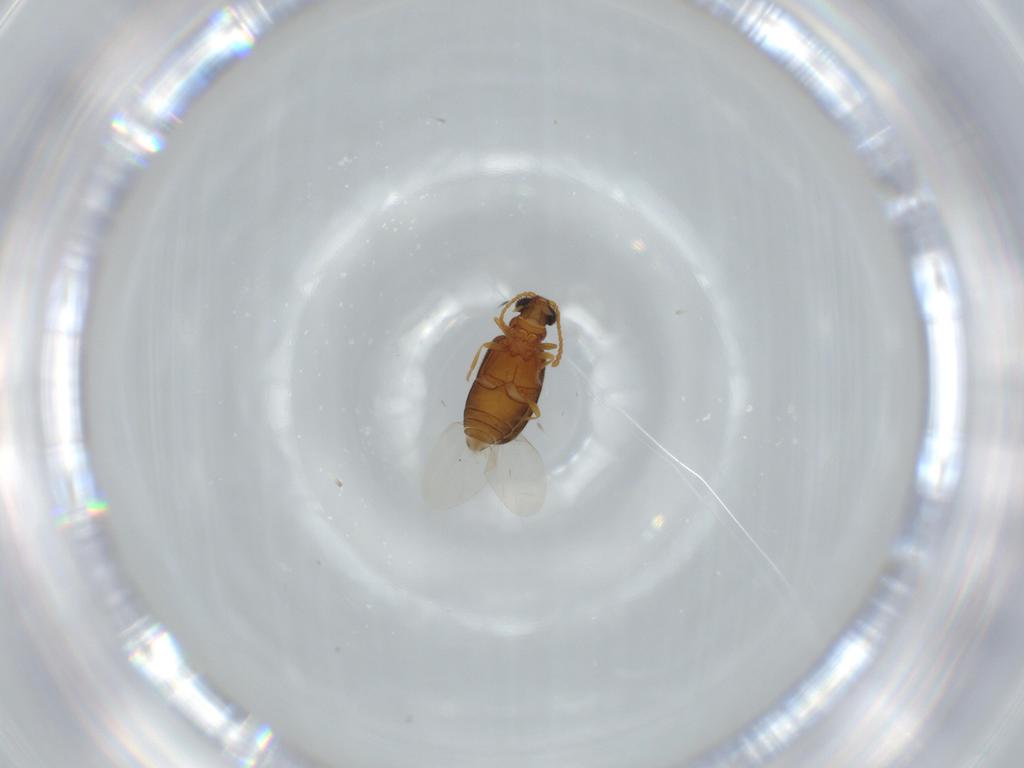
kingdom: Animalia
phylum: Arthropoda
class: Insecta
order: Coleoptera
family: Aderidae
